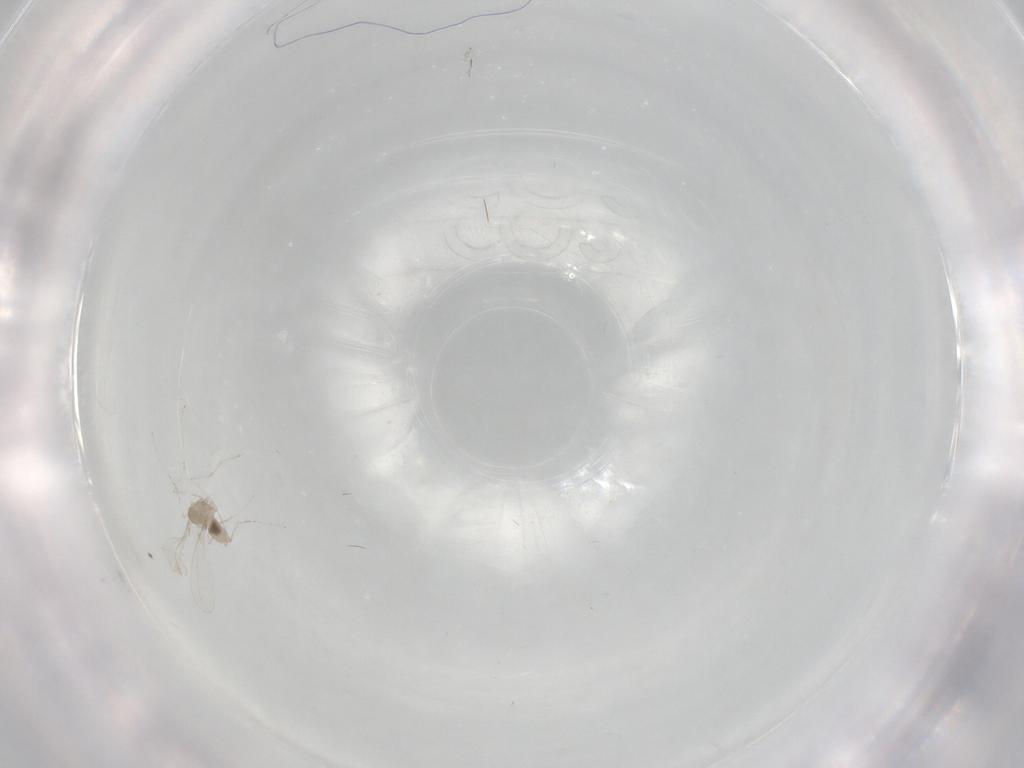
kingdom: Animalia
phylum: Arthropoda
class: Insecta
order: Diptera
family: Cecidomyiidae
